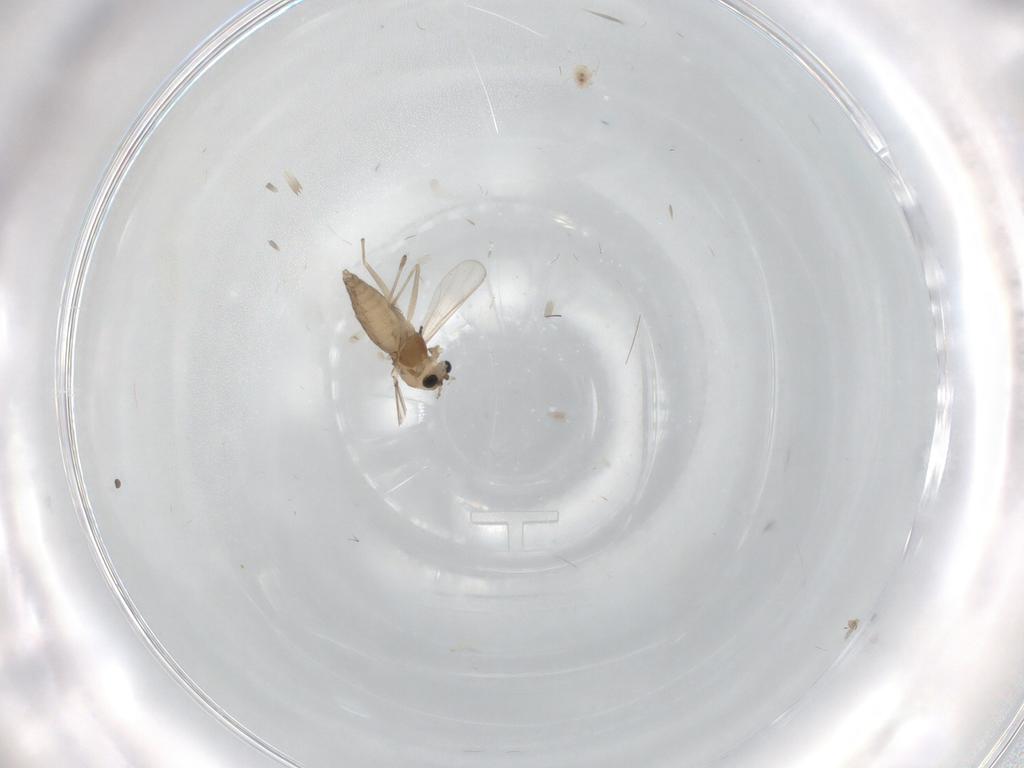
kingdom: Animalia
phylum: Arthropoda
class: Insecta
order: Diptera
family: Chironomidae
